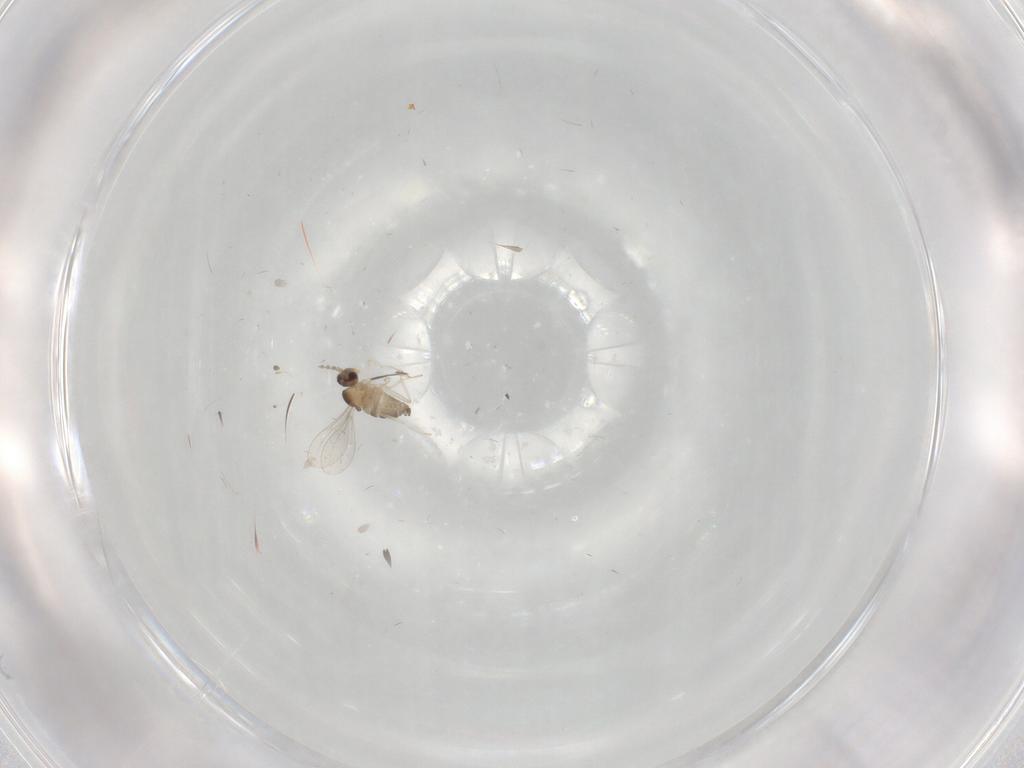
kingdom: Animalia
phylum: Arthropoda
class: Insecta
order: Diptera
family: Cecidomyiidae
